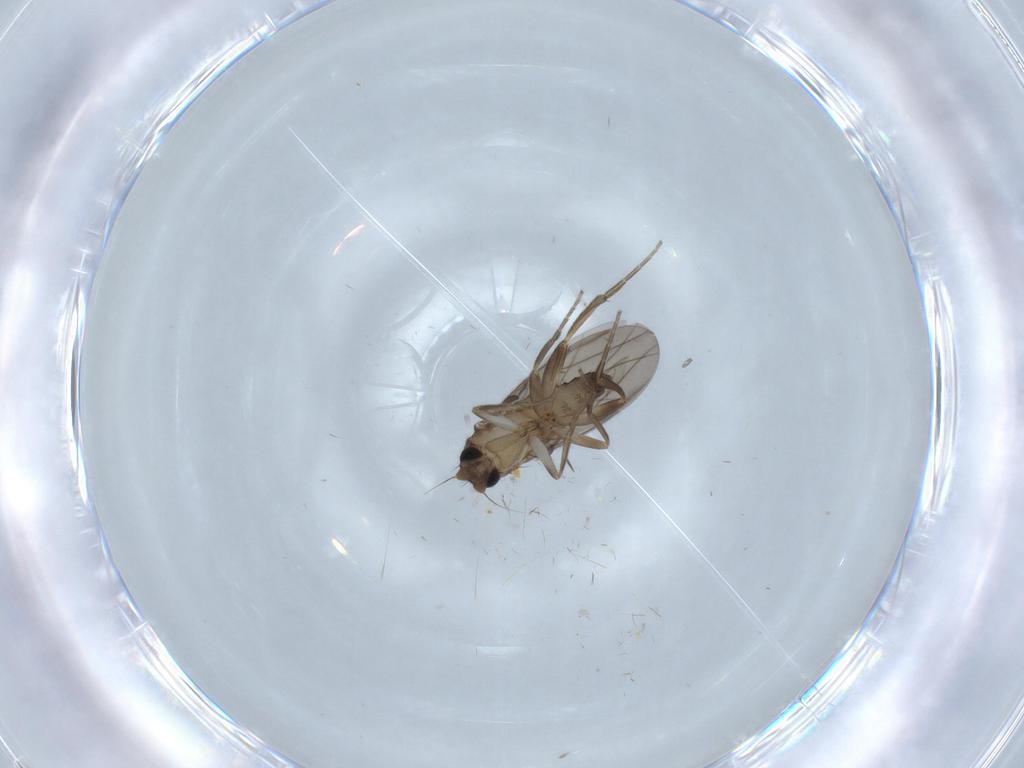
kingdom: Animalia
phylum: Arthropoda
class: Insecta
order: Diptera
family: Sciaridae
